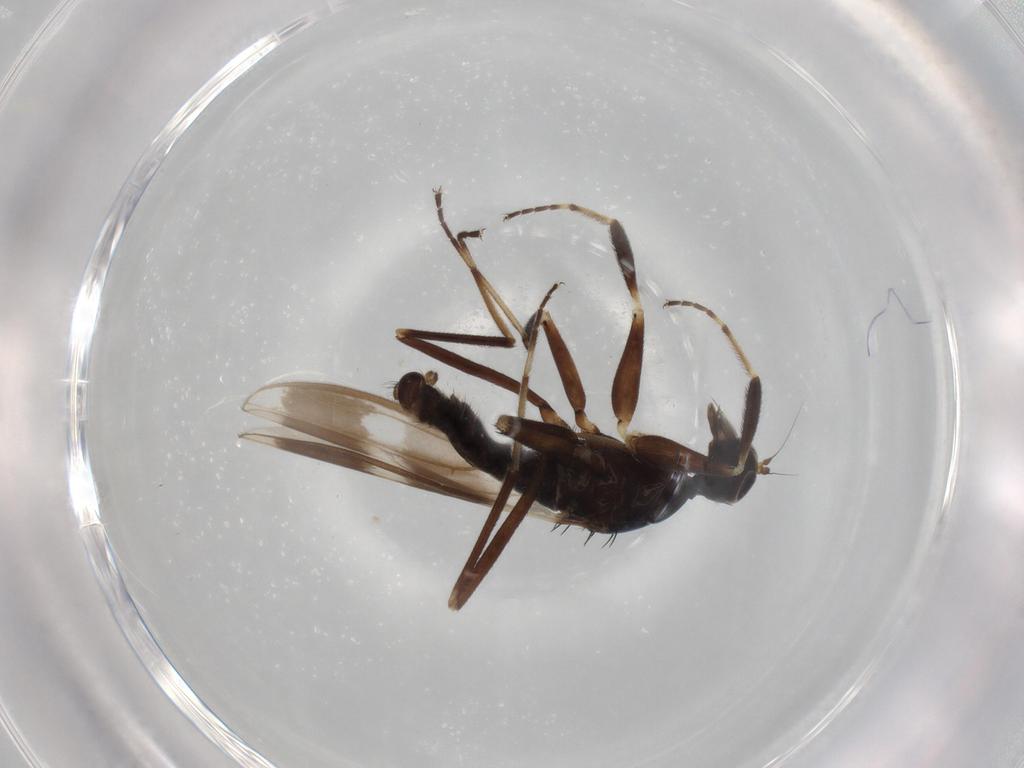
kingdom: Animalia
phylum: Arthropoda
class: Insecta
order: Diptera
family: Hybotidae
